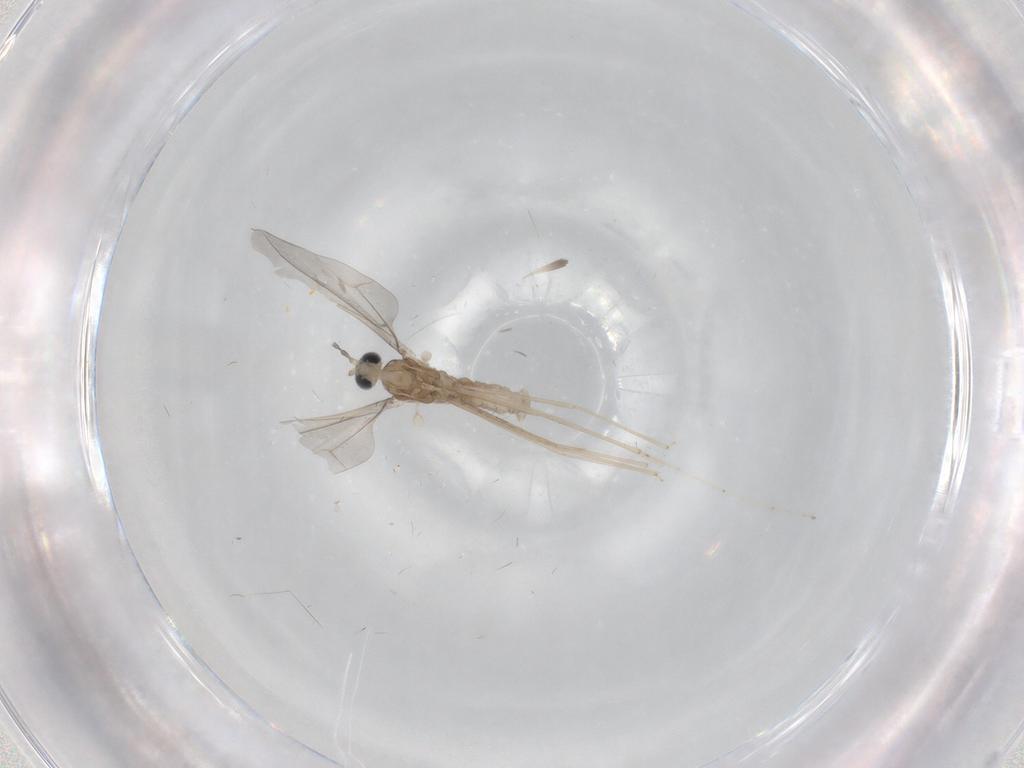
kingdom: Animalia
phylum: Arthropoda
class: Insecta
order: Diptera
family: Cecidomyiidae
